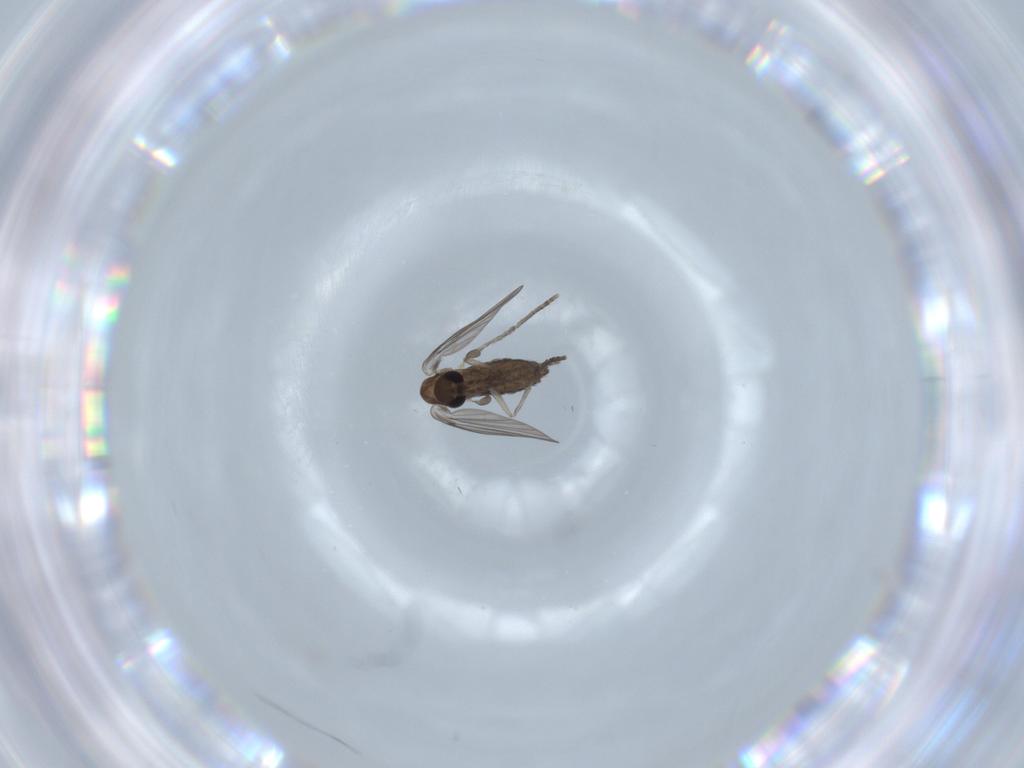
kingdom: Animalia
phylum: Arthropoda
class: Insecta
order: Diptera
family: Psychodidae
